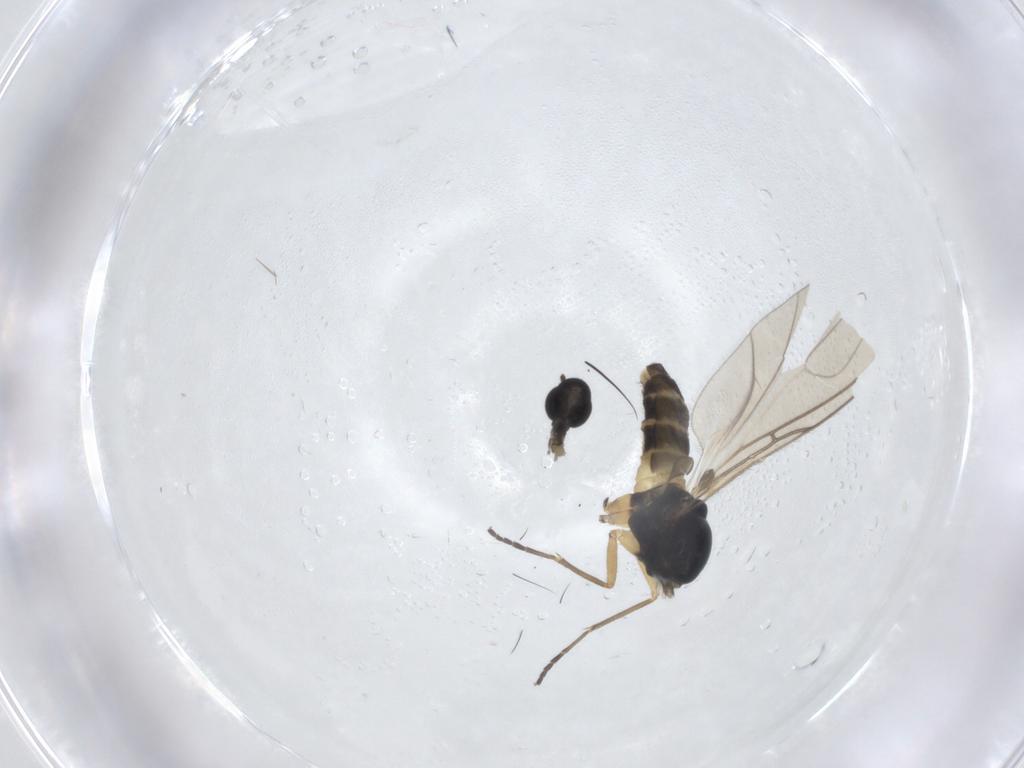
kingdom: Animalia
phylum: Arthropoda
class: Insecta
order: Diptera
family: Sciaridae
